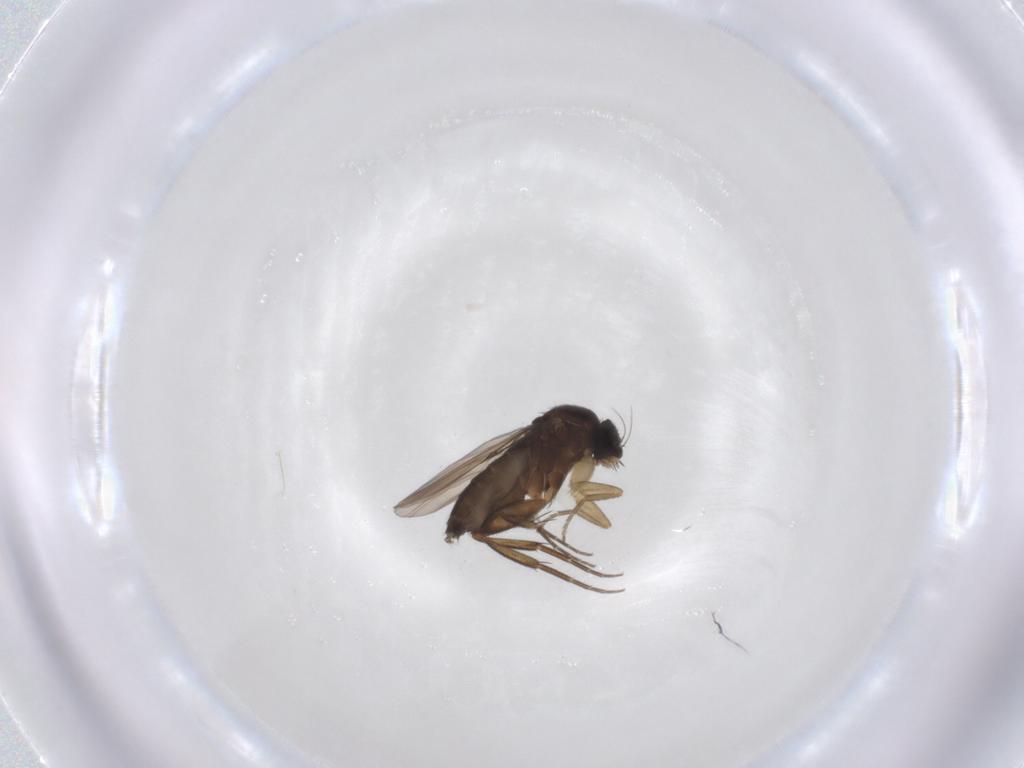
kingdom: Animalia
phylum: Arthropoda
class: Insecta
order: Diptera
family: Phoridae
